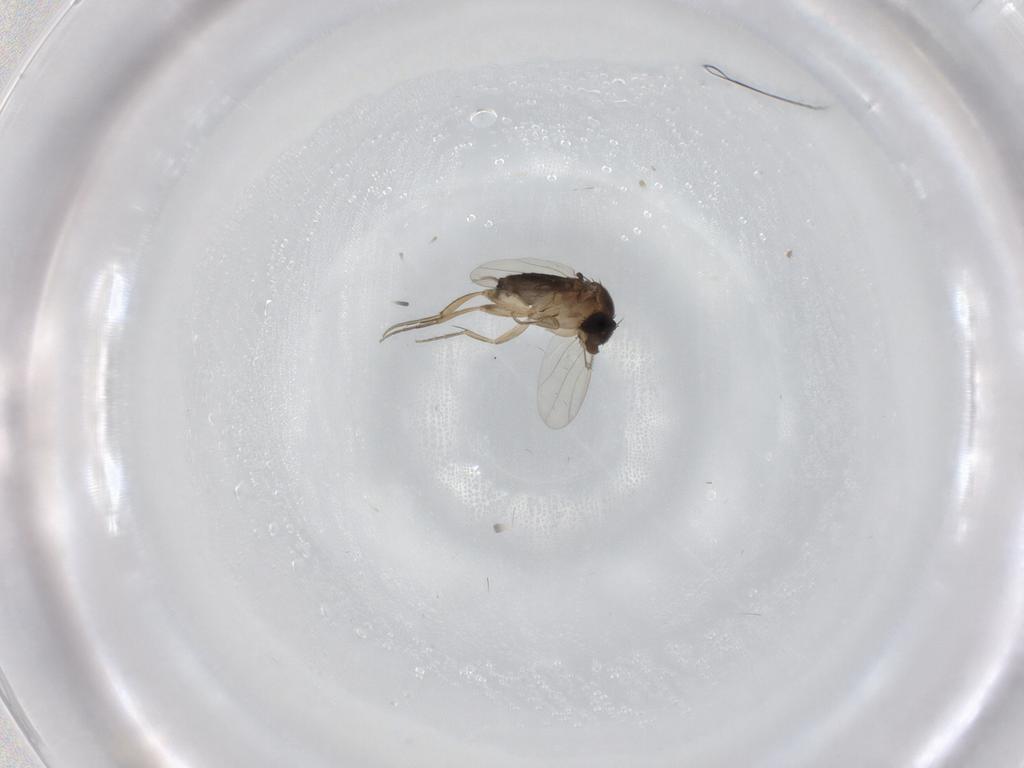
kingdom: Animalia
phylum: Arthropoda
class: Insecta
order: Diptera
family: Phoridae
